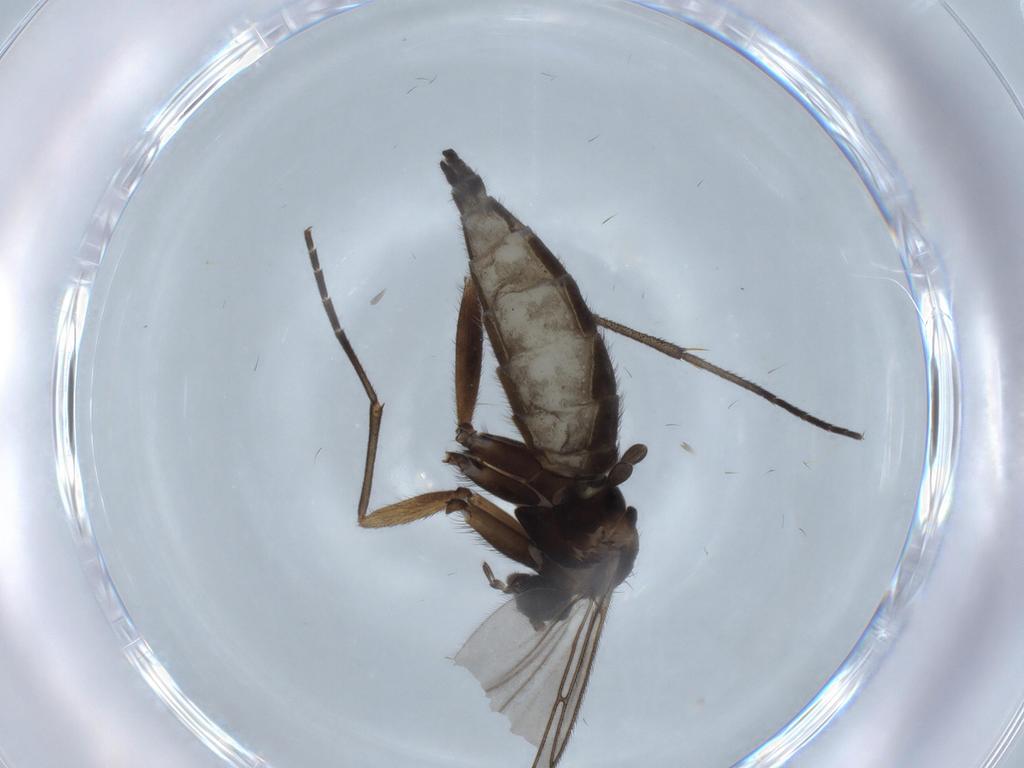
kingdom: Animalia
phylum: Arthropoda
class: Insecta
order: Diptera
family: Sciaridae
